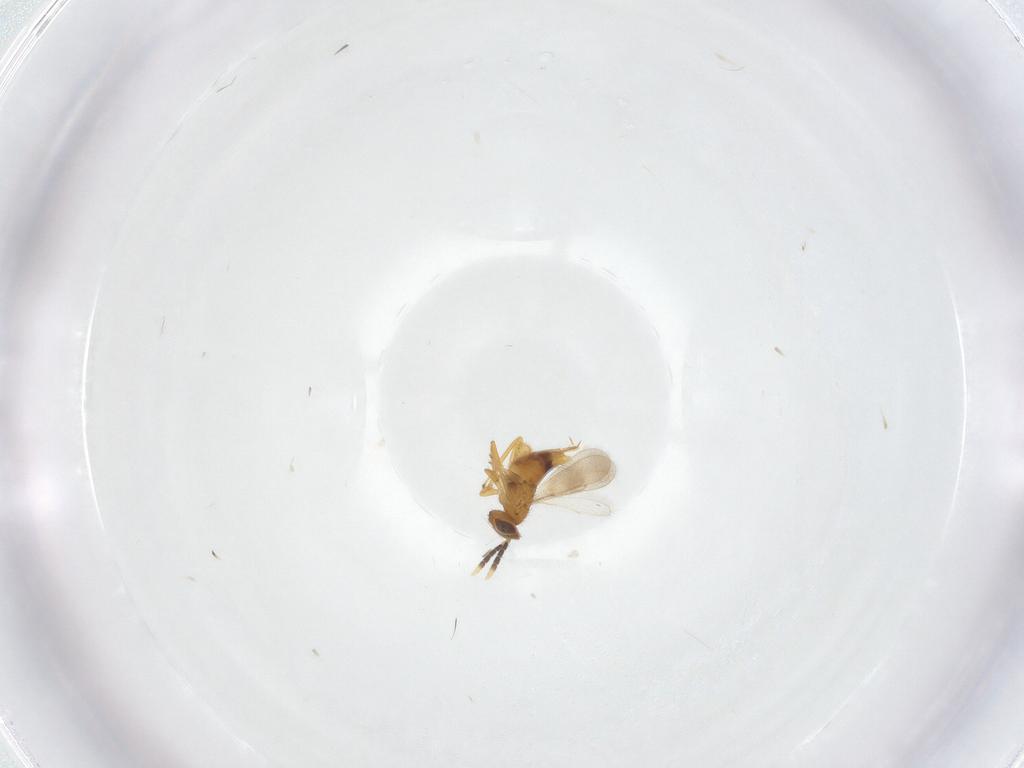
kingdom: Animalia
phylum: Arthropoda
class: Insecta
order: Hymenoptera
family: Aphelinidae
